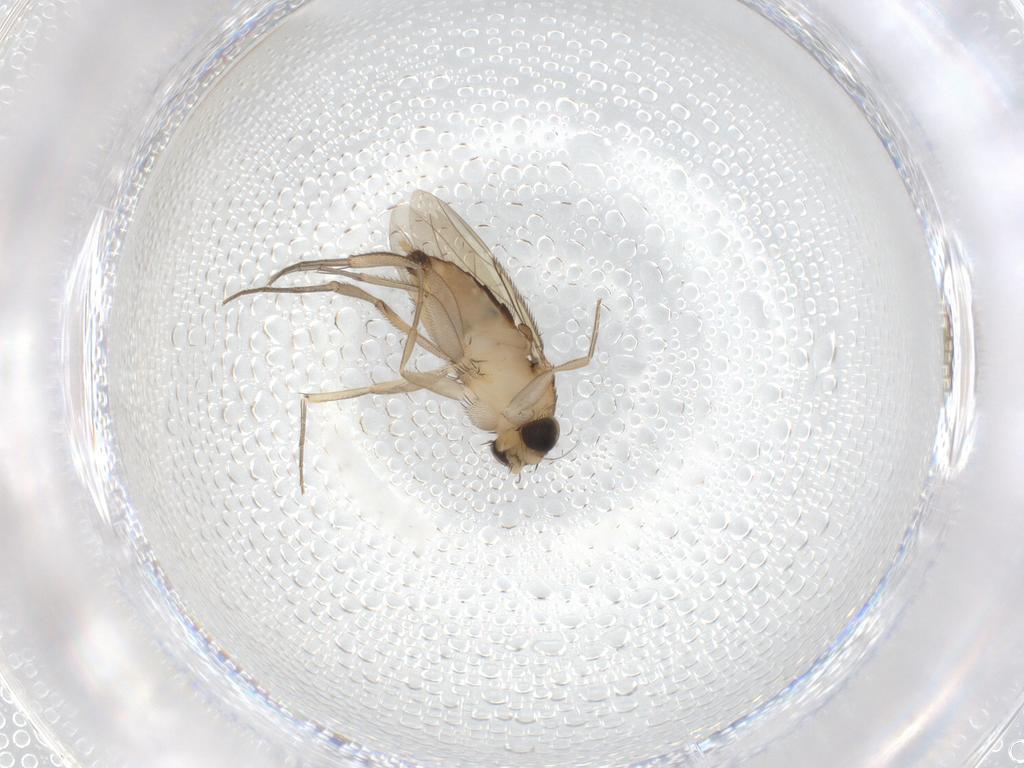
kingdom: Animalia
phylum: Arthropoda
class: Insecta
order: Diptera
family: Phoridae
